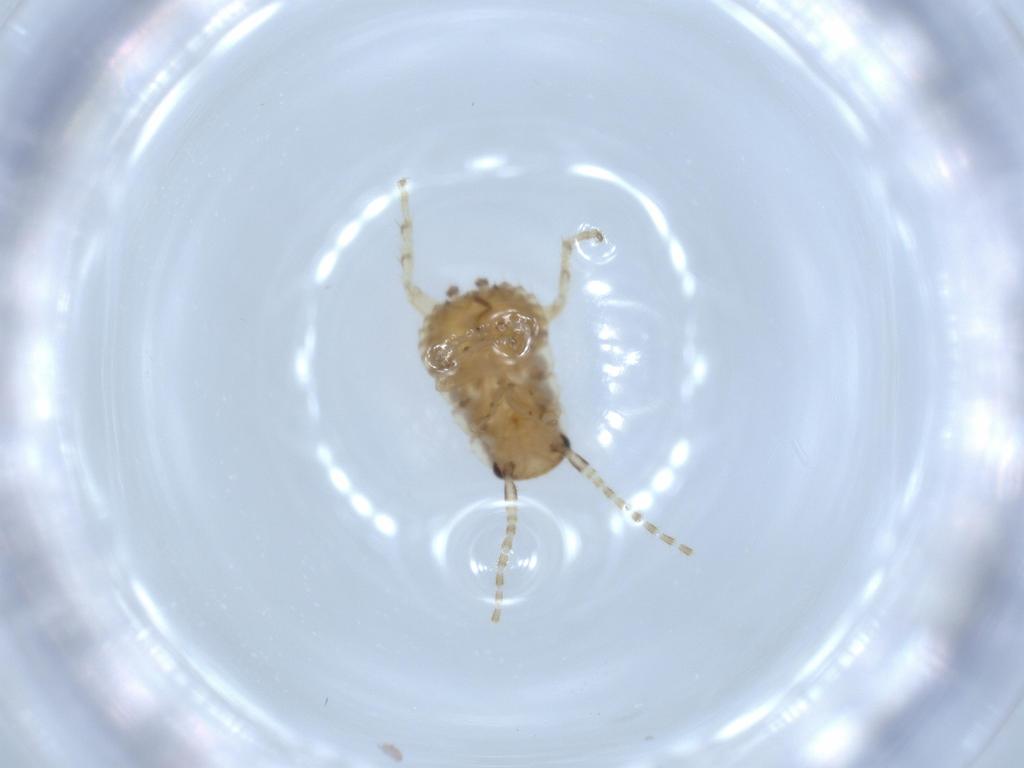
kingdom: Animalia
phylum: Arthropoda
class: Insecta
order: Blattodea
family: Ectobiidae
